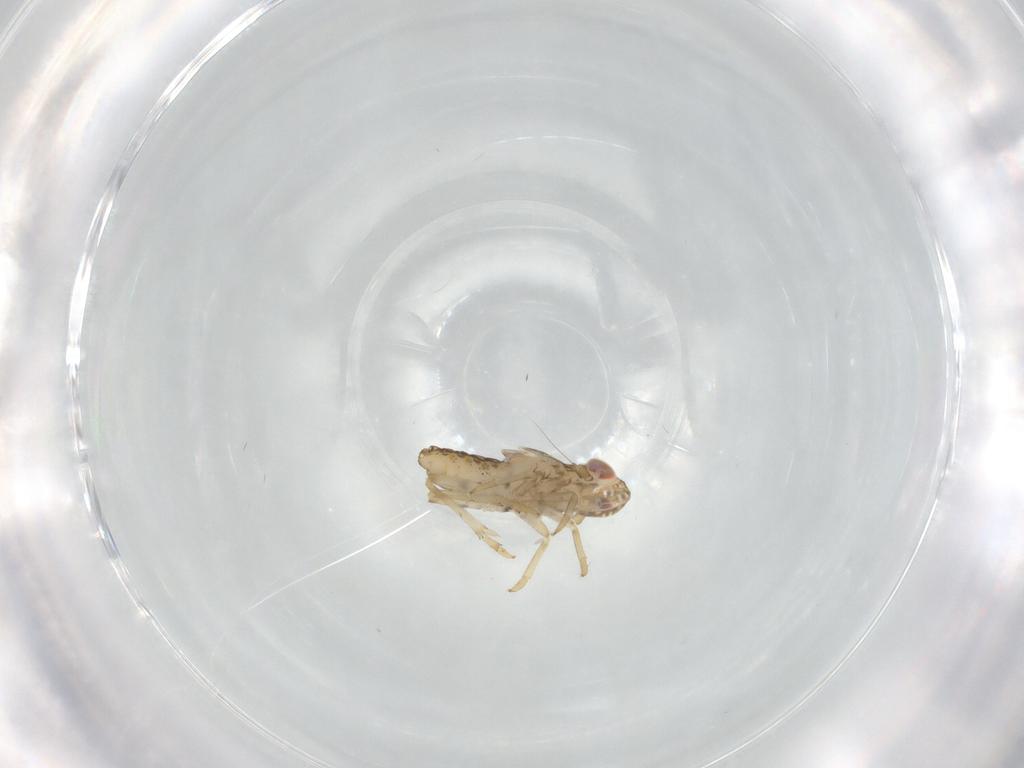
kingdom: Animalia
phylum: Arthropoda
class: Insecta
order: Hemiptera
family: Delphacidae
